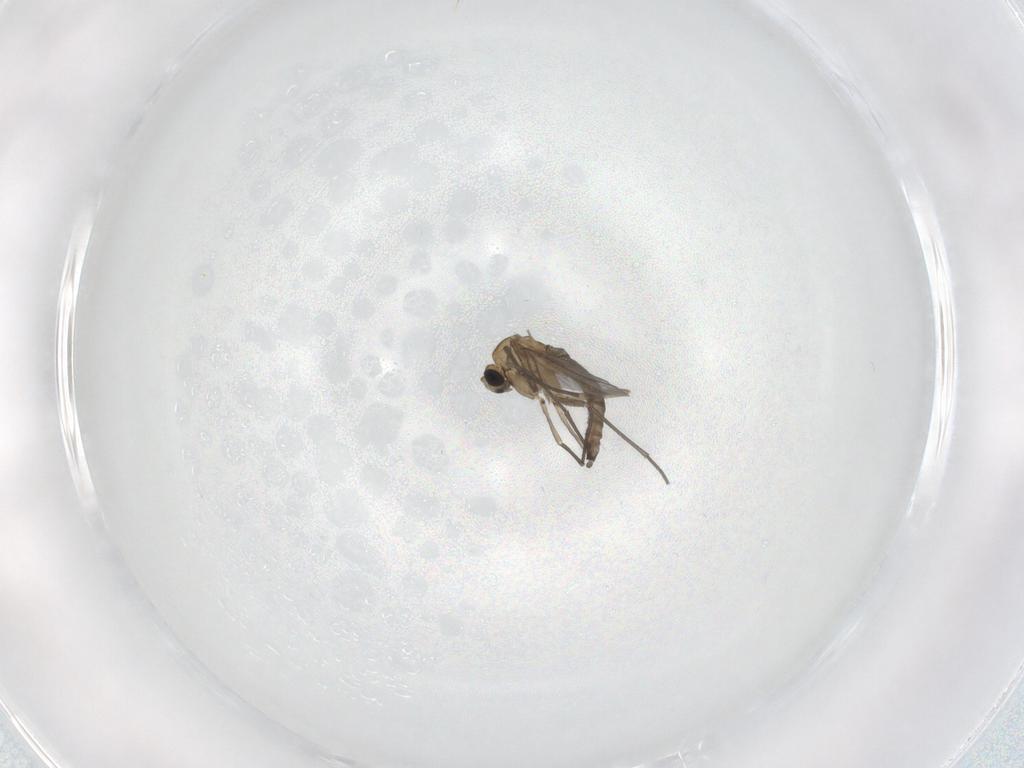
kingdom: Animalia
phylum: Arthropoda
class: Insecta
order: Diptera
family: Sciaridae
